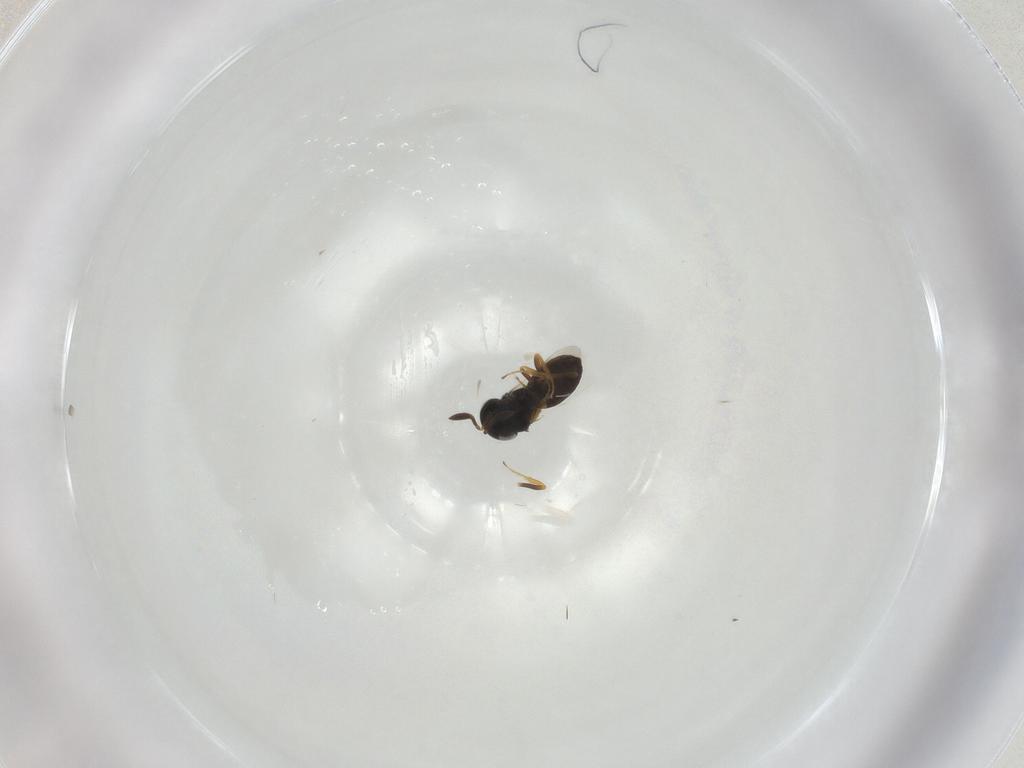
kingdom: Animalia
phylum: Arthropoda
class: Insecta
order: Hymenoptera
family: Scelionidae
